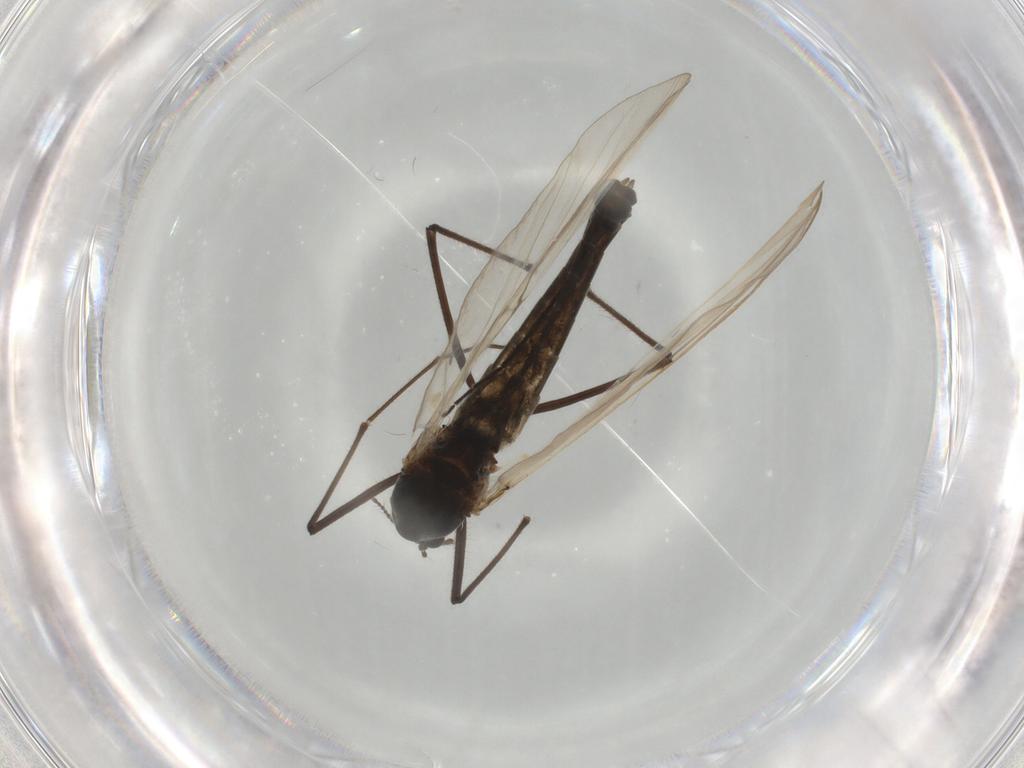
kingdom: Animalia
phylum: Arthropoda
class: Insecta
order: Diptera
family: Sciaridae
